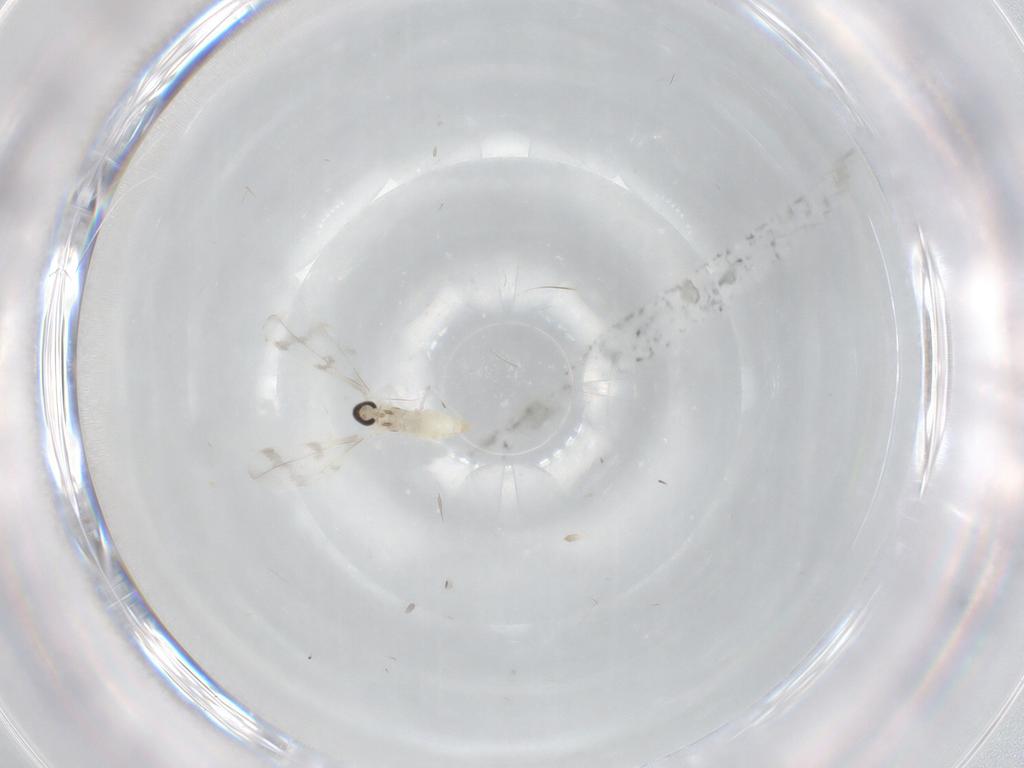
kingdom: Animalia
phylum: Arthropoda
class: Insecta
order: Diptera
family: Cecidomyiidae
